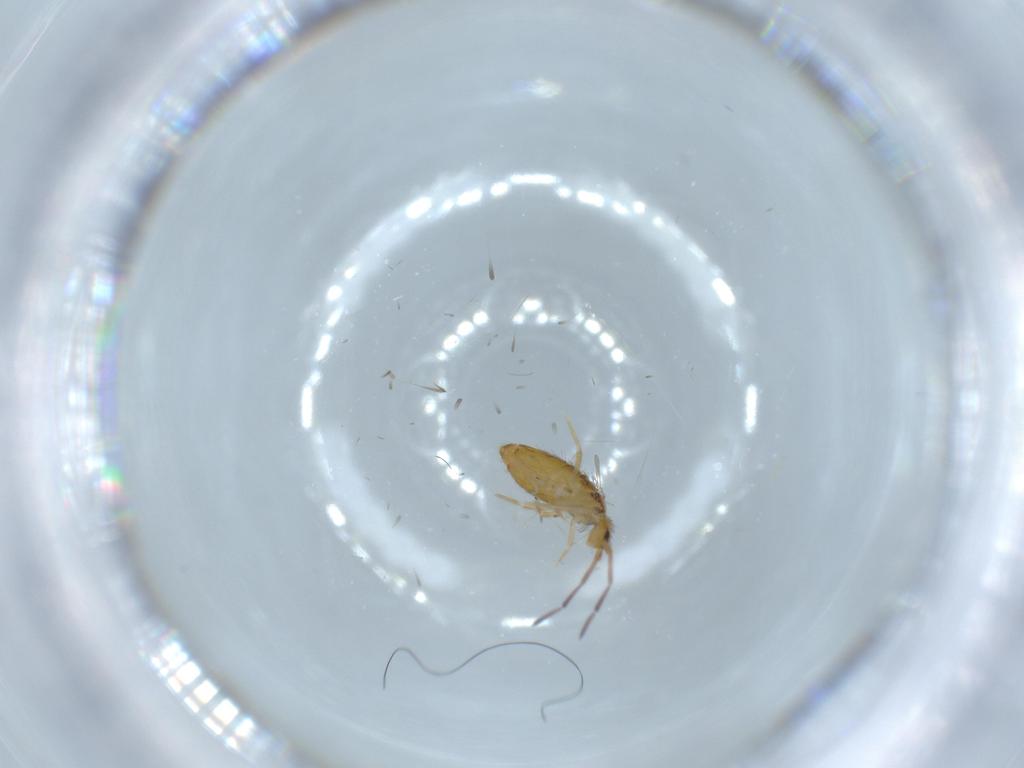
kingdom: Animalia
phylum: Arthropoda
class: Collembola
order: Entomobryomorpha
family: Entomobryidae
